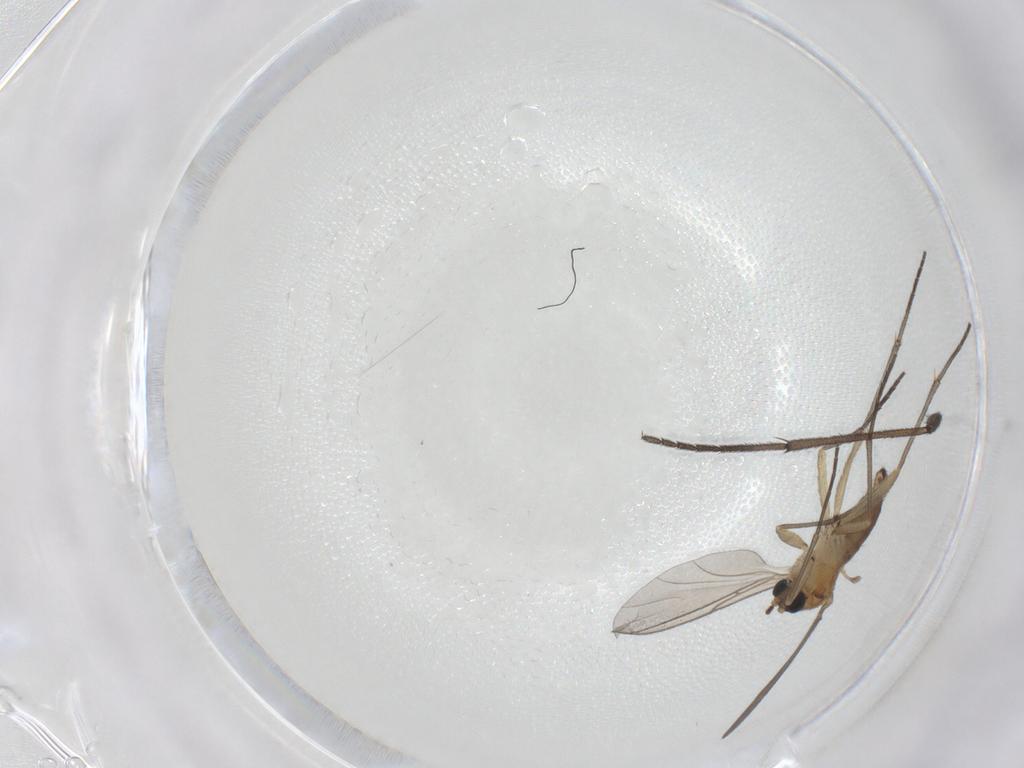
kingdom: Animalia
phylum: Arthropoda
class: Insecta
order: Diptera
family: Sciaridae
